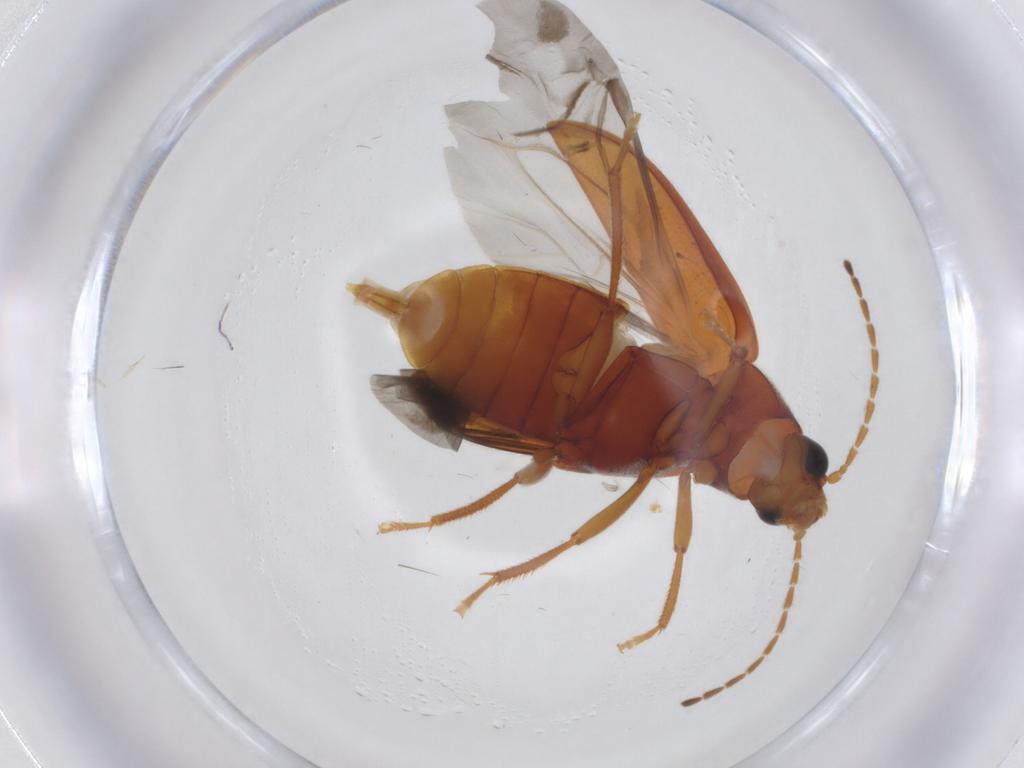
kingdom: Animalia
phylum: Arthropoda
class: Insecta
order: Coleoptera
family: Ptilodactylidae
